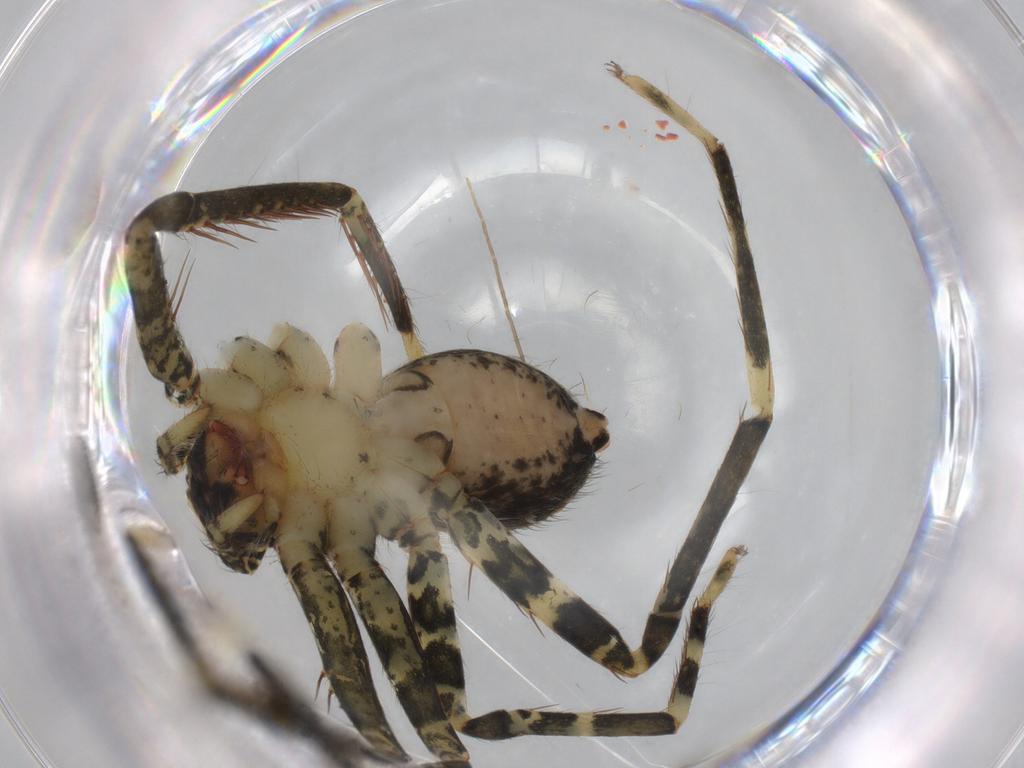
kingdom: Animalia
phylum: Arthropoda
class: Arachnida
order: Araneae
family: Ctenidae
